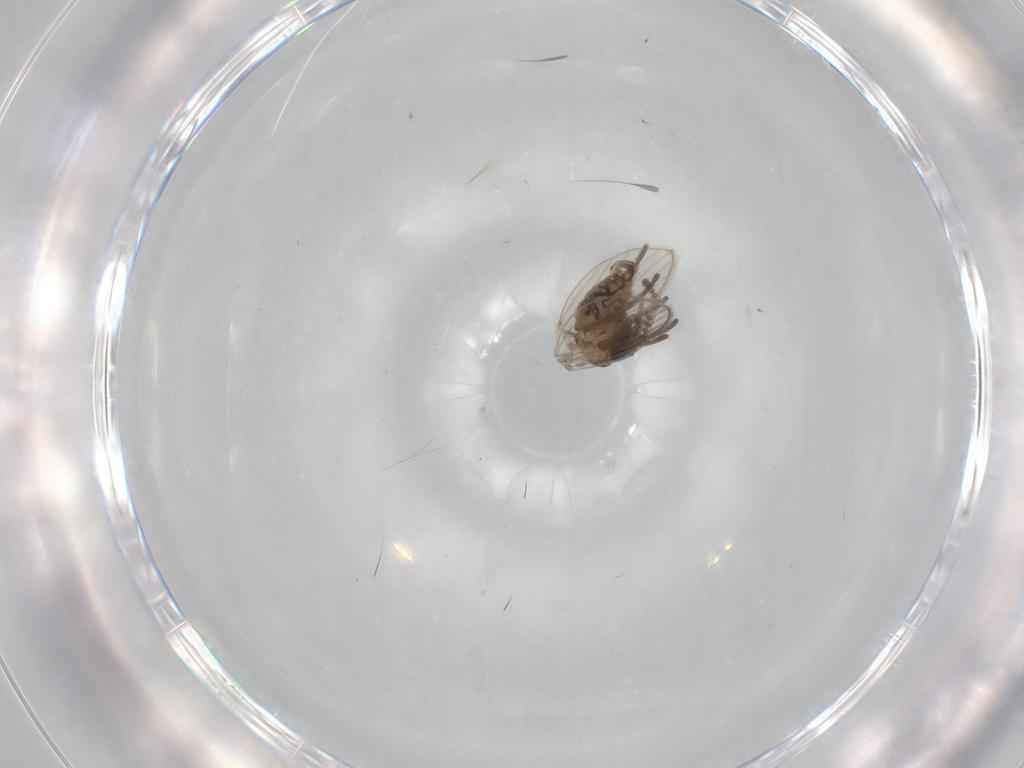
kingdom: Animalia
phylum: Arthropoda
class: Insecta
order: Diptera
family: Psychodidae
